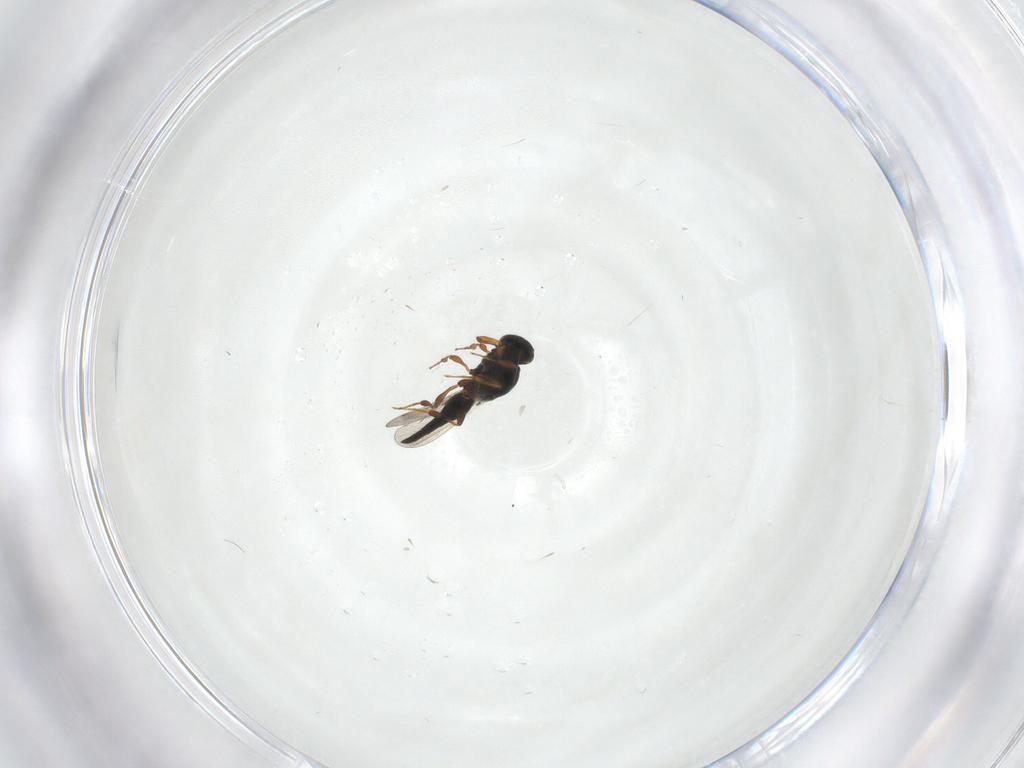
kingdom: Animalia
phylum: Arthropoda
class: Insecta
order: Hymenoptera
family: Platygastridae
